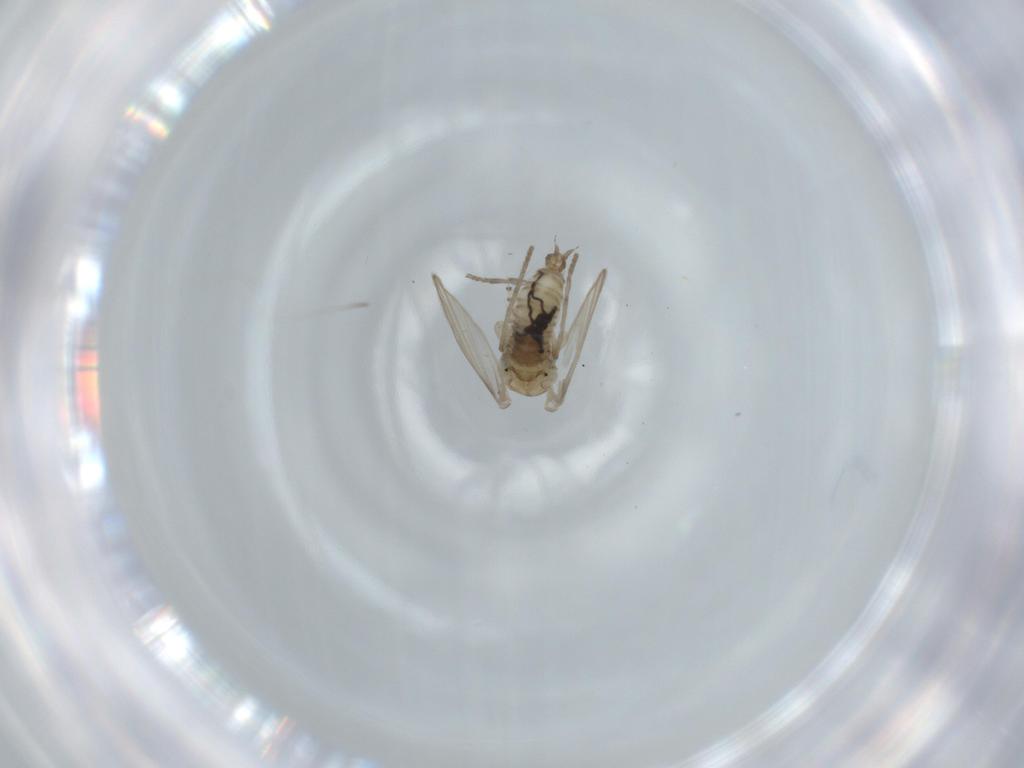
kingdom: Animalia
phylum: Arthropoda
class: Insecta
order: Diptera
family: Psychodidae
